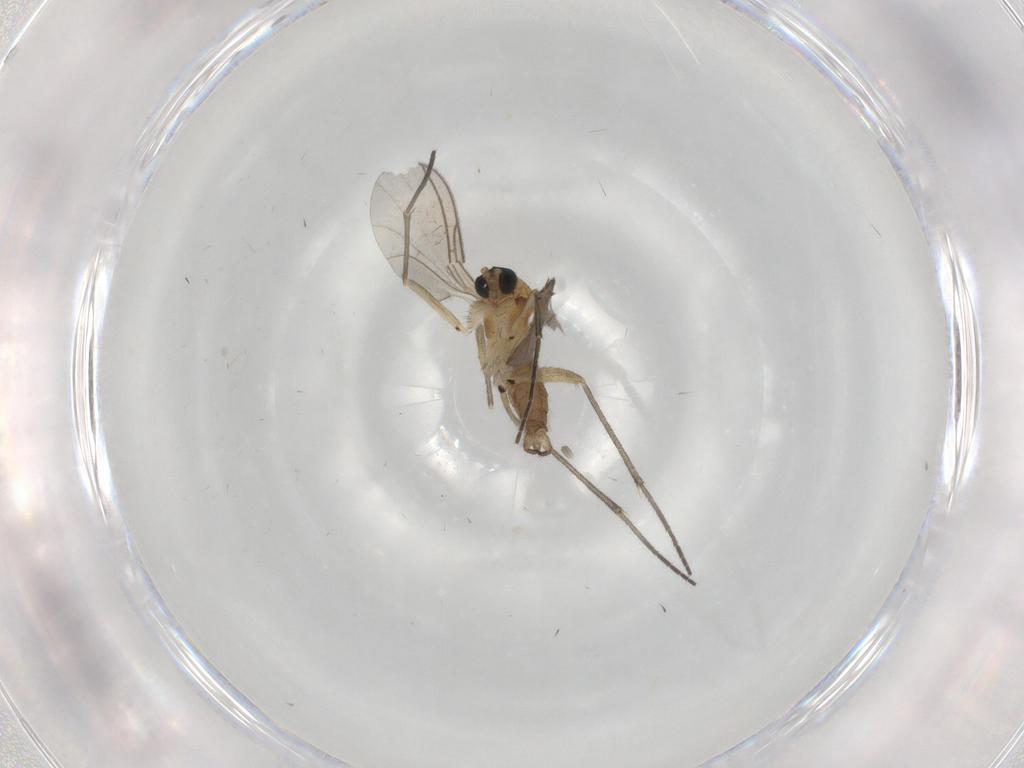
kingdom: Animalia
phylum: Arthropoda
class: Insecta
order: Diptera
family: Sciaridae
